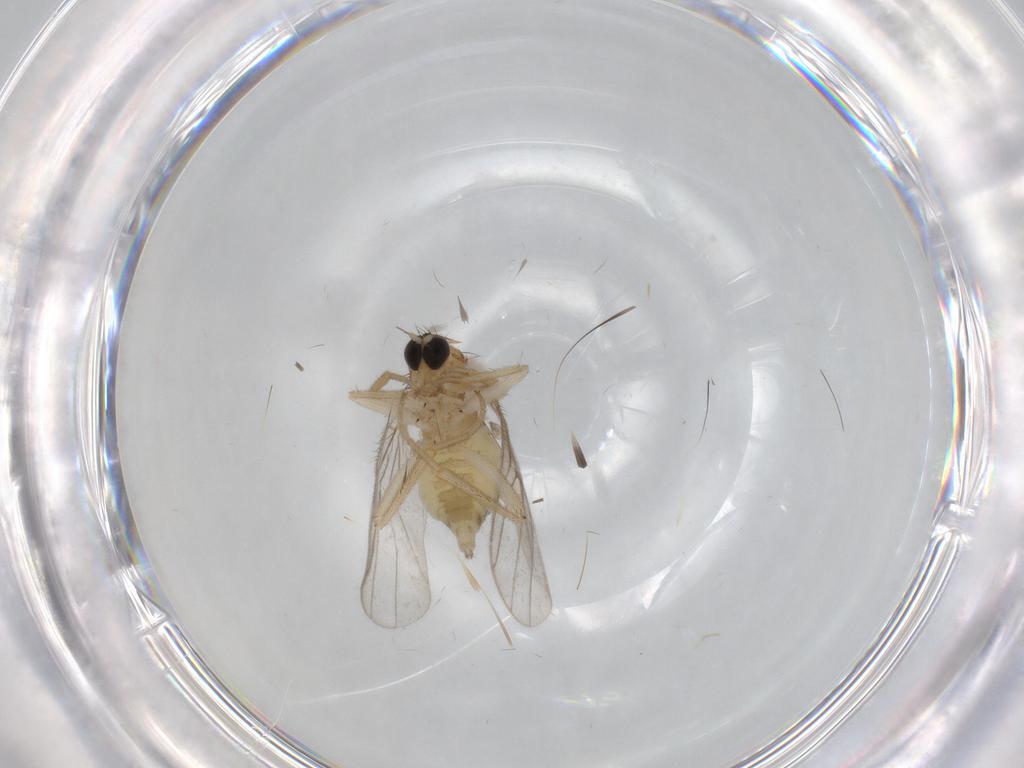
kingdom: Animalia
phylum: Arthropoda
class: Insecta
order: Diptera
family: Hybotidae
